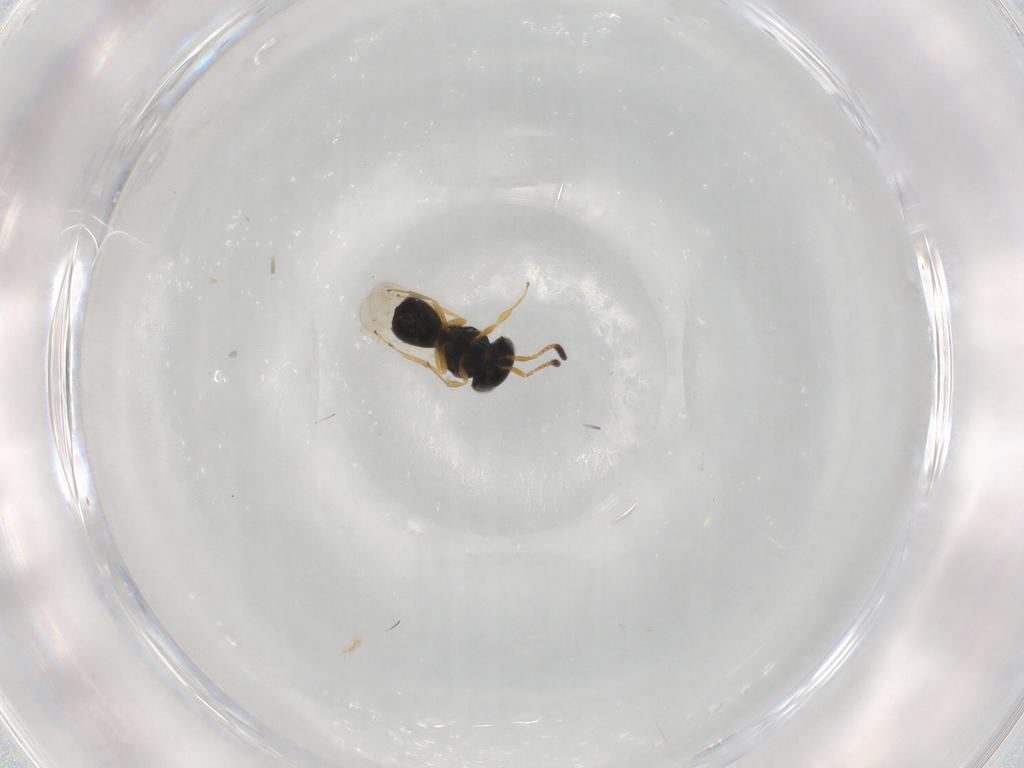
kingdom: Animalia
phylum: Arthropoda
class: Insecta
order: Hymenoptera
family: Scelionidae
